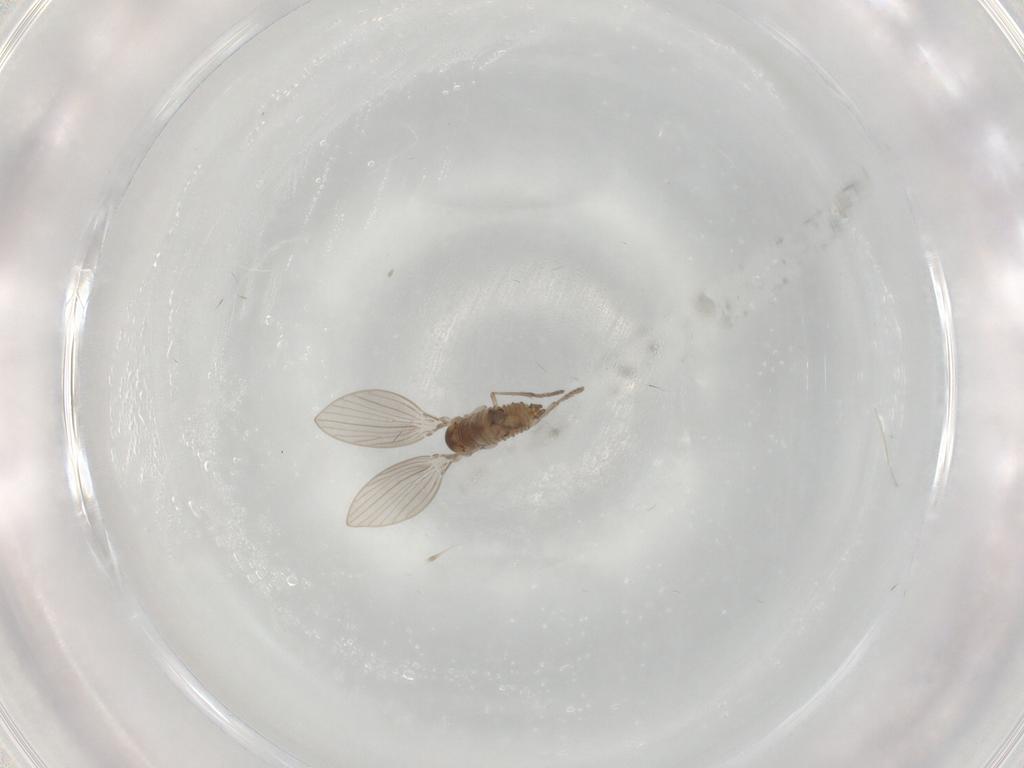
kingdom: Animalia
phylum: Arthropoda
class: Insecta
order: Diptera
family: Psychodidae
